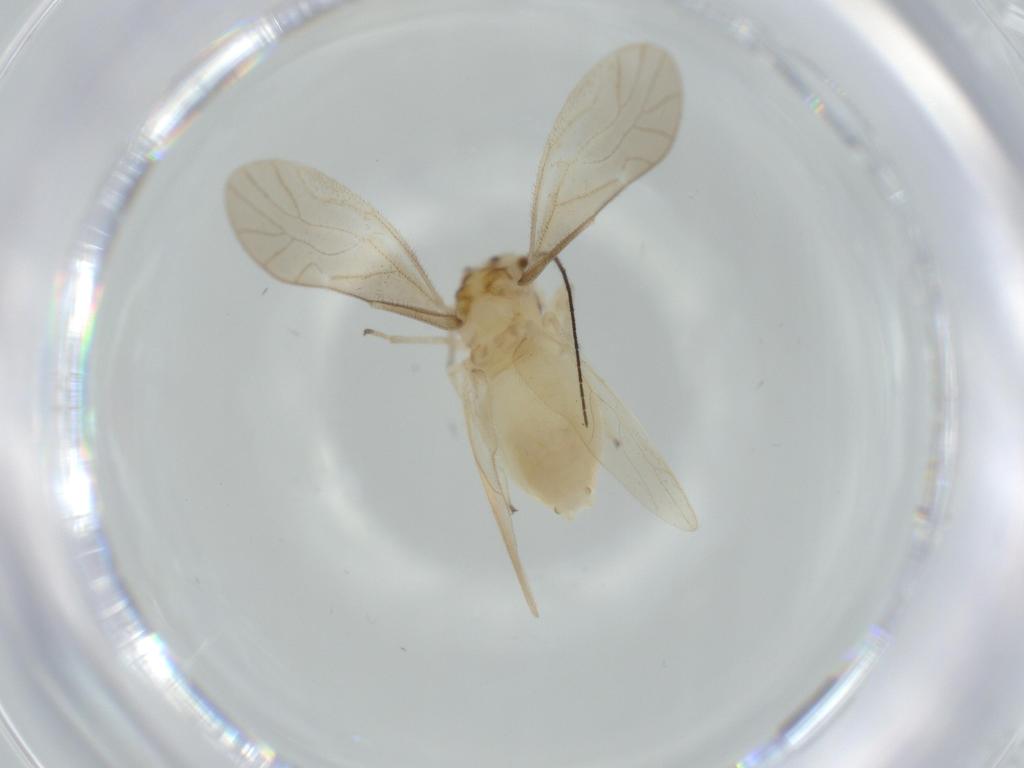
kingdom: Animalia
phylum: Arthropoda
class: Insecta
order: Psocodea
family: Caeciliusidae
